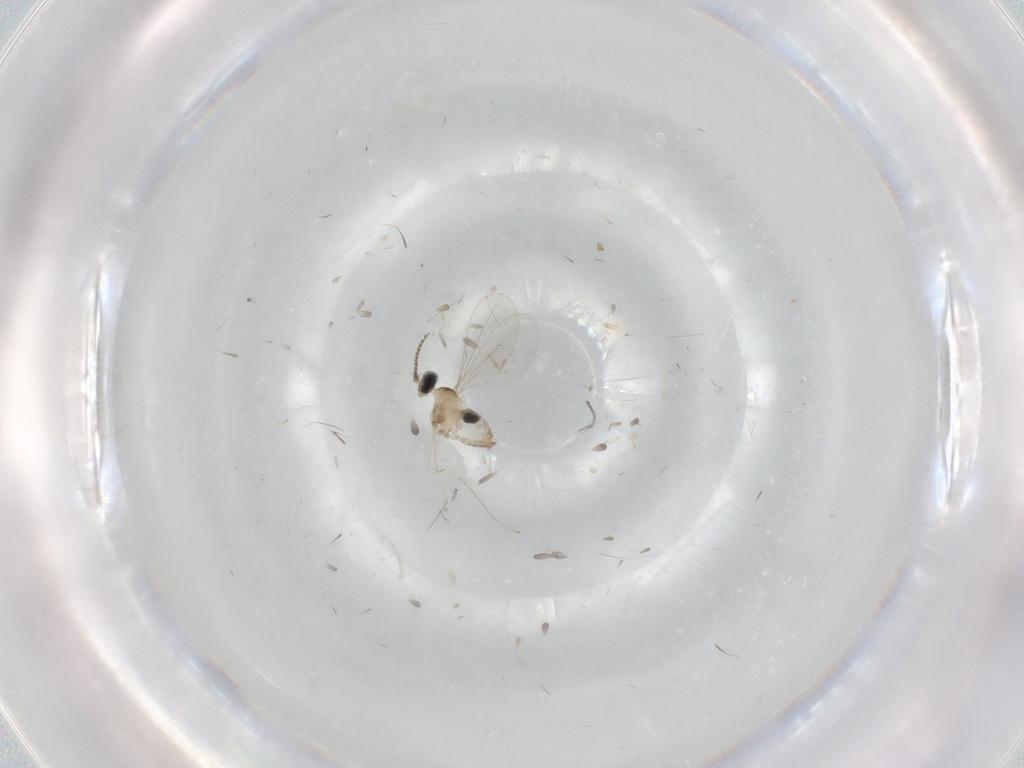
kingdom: Animalia
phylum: Arthropoda
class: Insecta
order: Diptera
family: Cecidomyiidae
